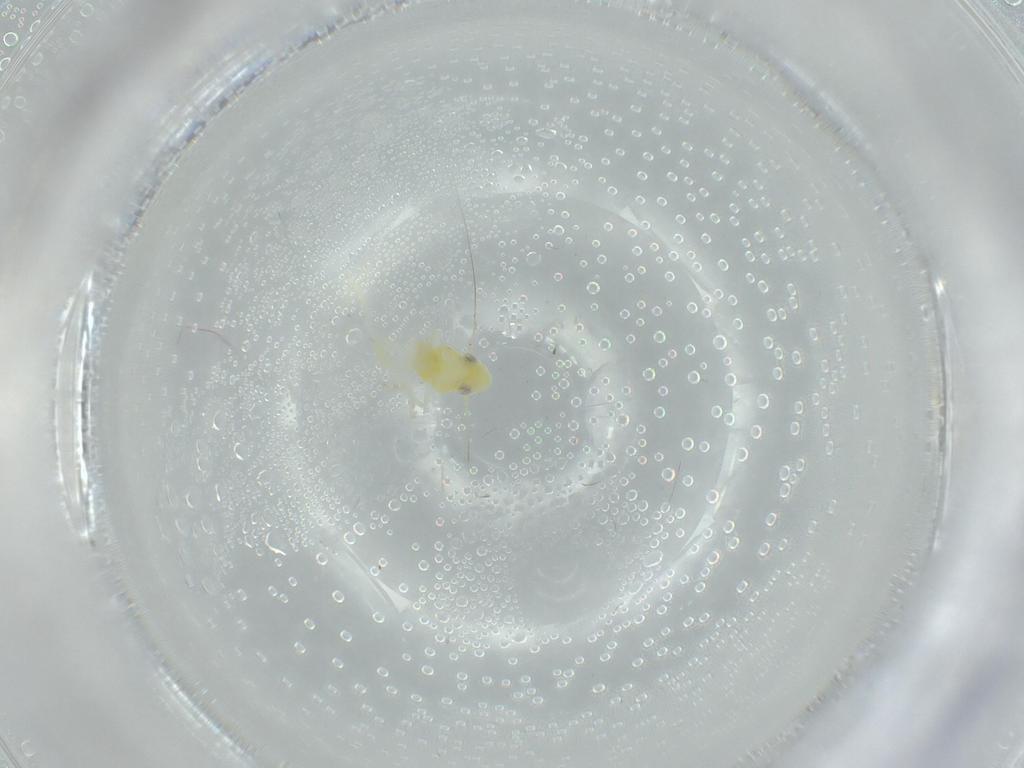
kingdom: Animalia
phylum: Arthropoda
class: Insecta
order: Hemiptera
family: Cicadellidae
